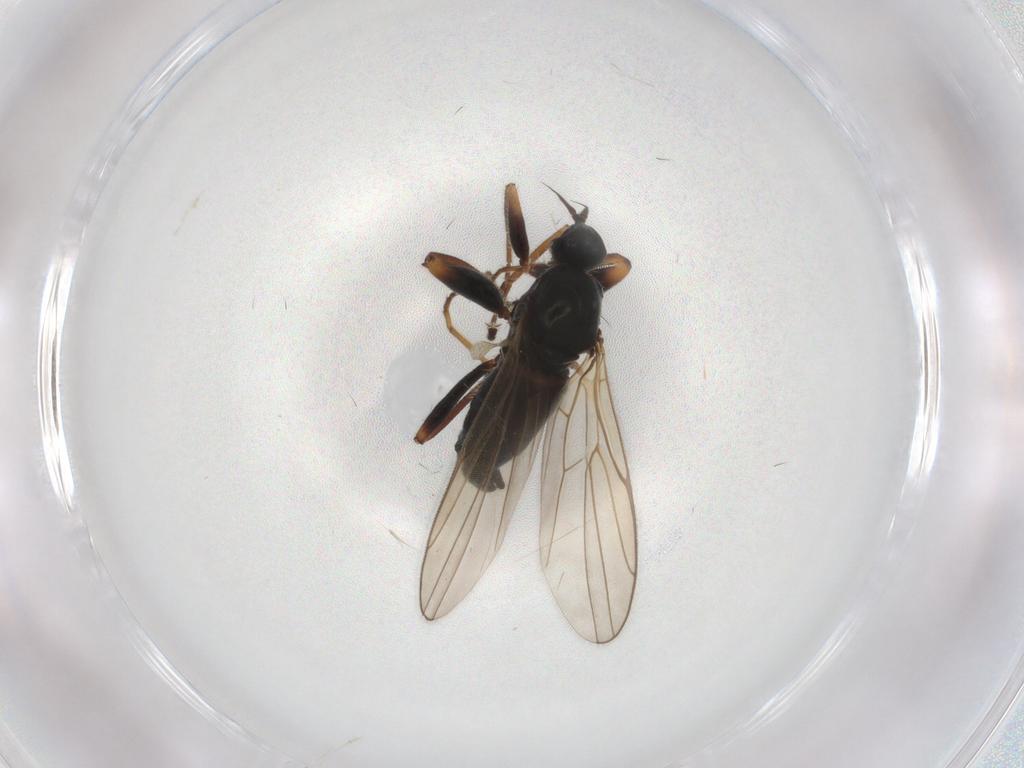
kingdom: Animalia
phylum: Arthropoda
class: Insecta
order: Diptera
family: Hybotidae
